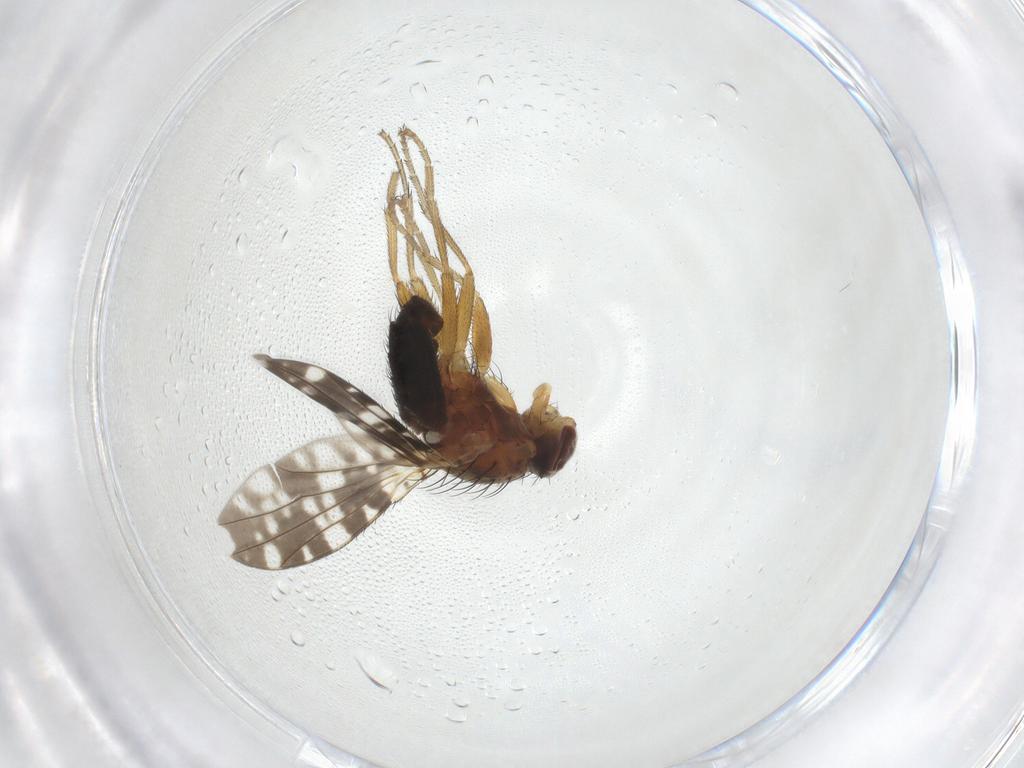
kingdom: Animalia
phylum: Arthropoda
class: Insecta
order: Diptera
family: Heleomyzidae
